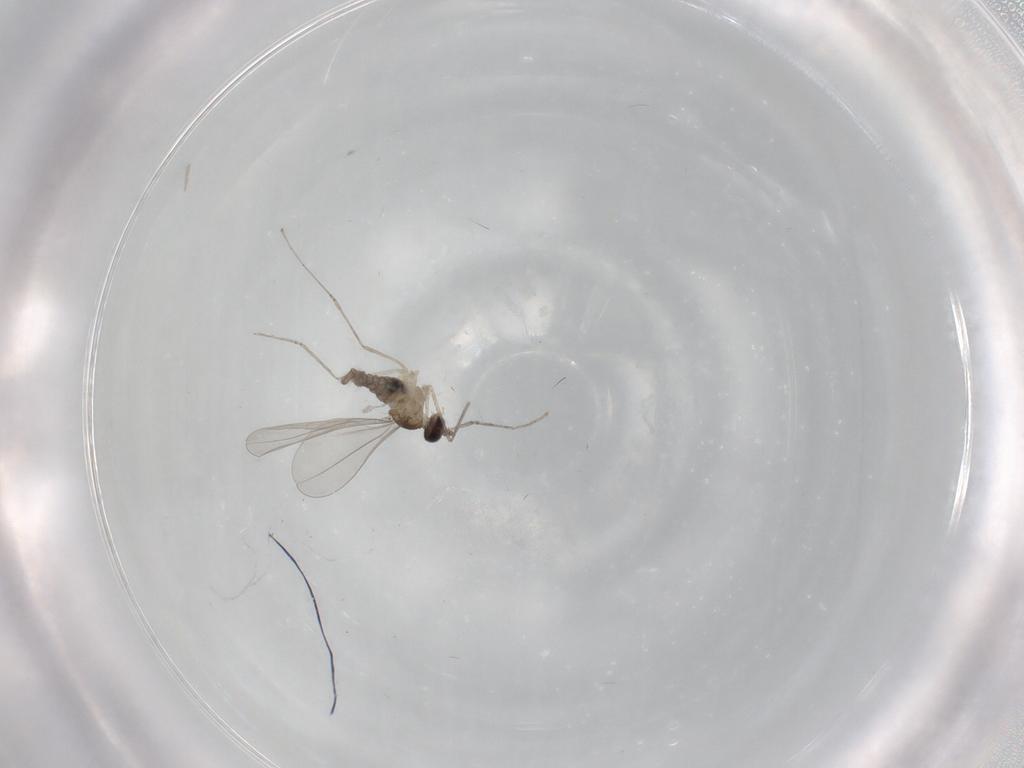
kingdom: Animalia
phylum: Arthropoda
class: Insecta
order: Diptera
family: Cecidomyiidae
